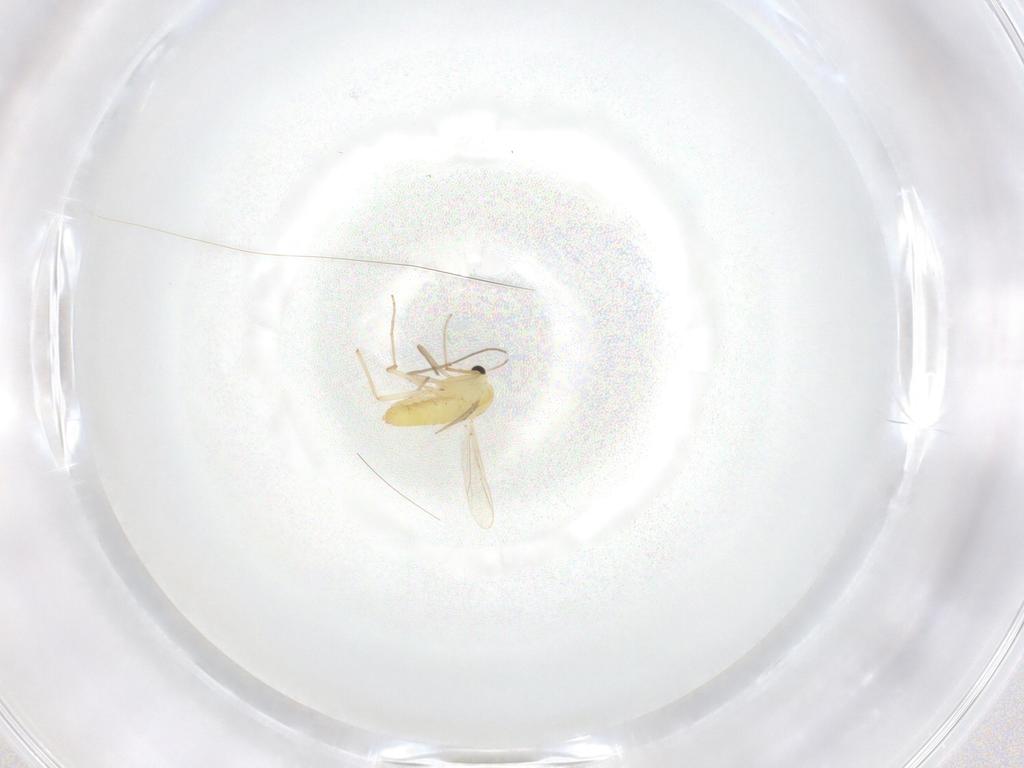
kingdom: Animalia
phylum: Arthropoda
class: Insecta
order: Diptera
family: Chironomidae
